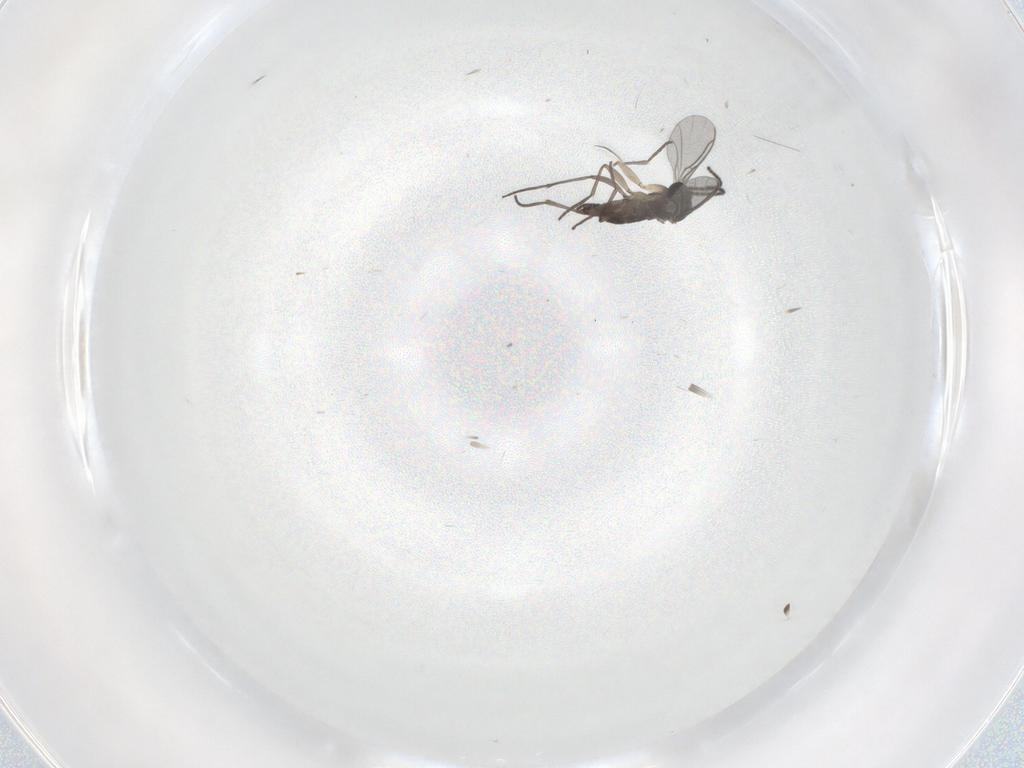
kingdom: Animalia
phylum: Arthropoda
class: Insecta
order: Diptera
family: Sciaridae
